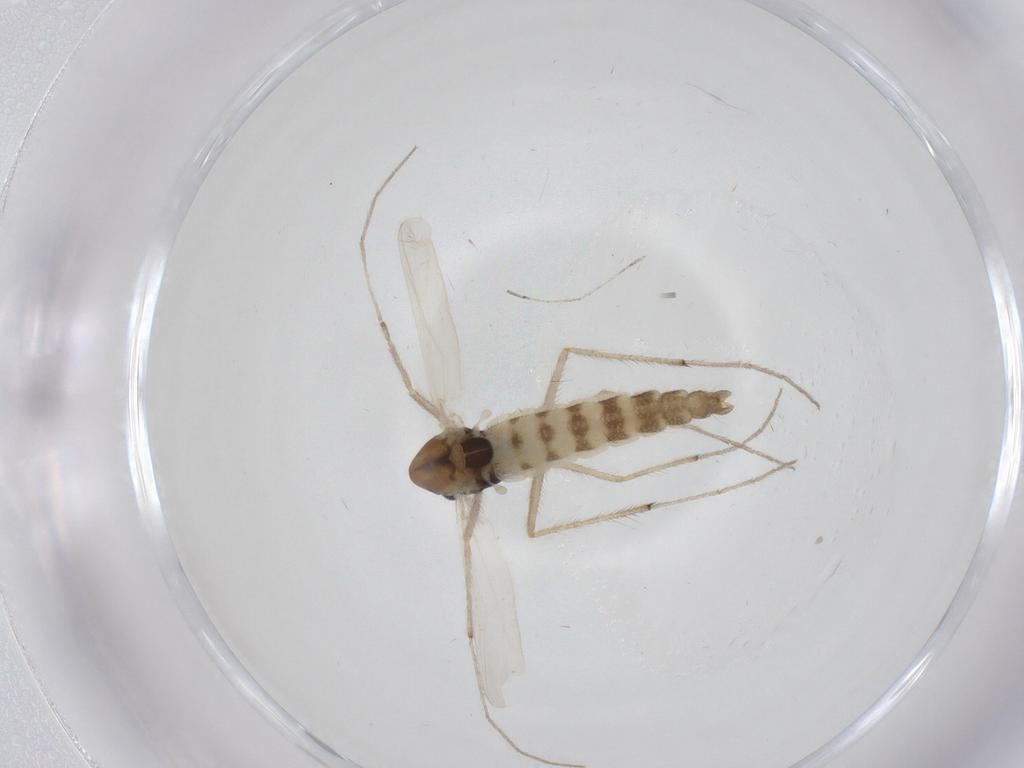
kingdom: Animalia
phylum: Arthropoda
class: Insecta
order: Diptera
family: Chironomidae
